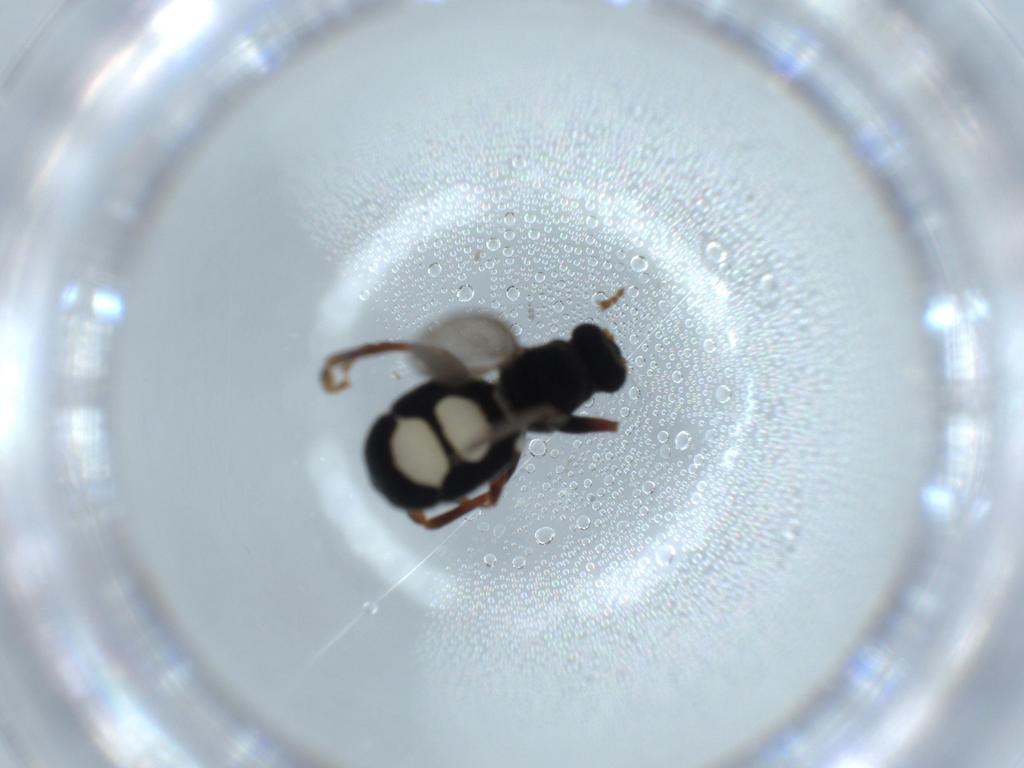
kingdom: Animalia
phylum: Arthropoda
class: Insecta
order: Diptera
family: Sphaeroceridae
